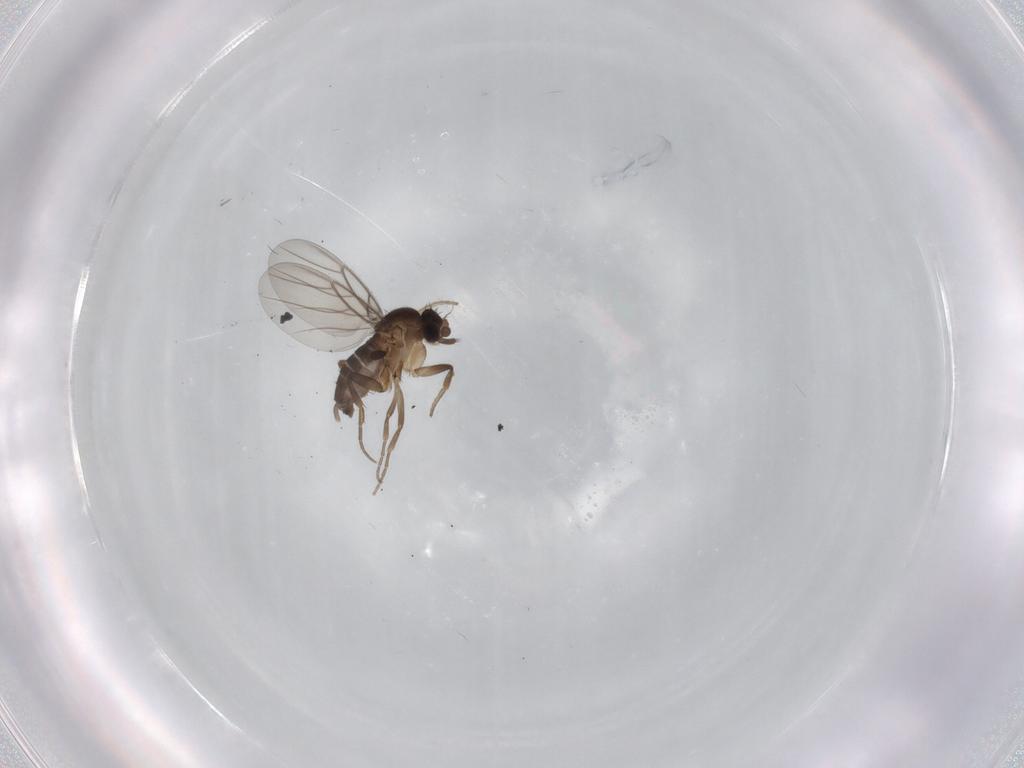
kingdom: Animalia
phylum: Arthropoda
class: Insecta
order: Diptera
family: Phoridae
